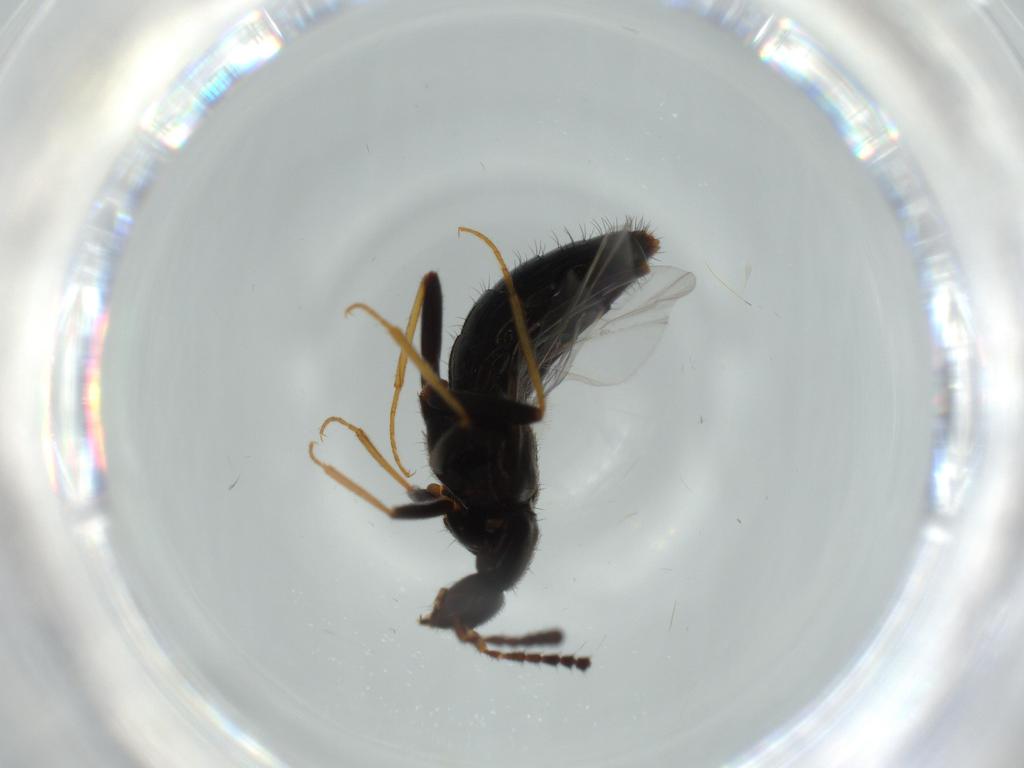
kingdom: Animalia
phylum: Arthropoda
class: Insecta
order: Coleoptera
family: Staphylinidae
